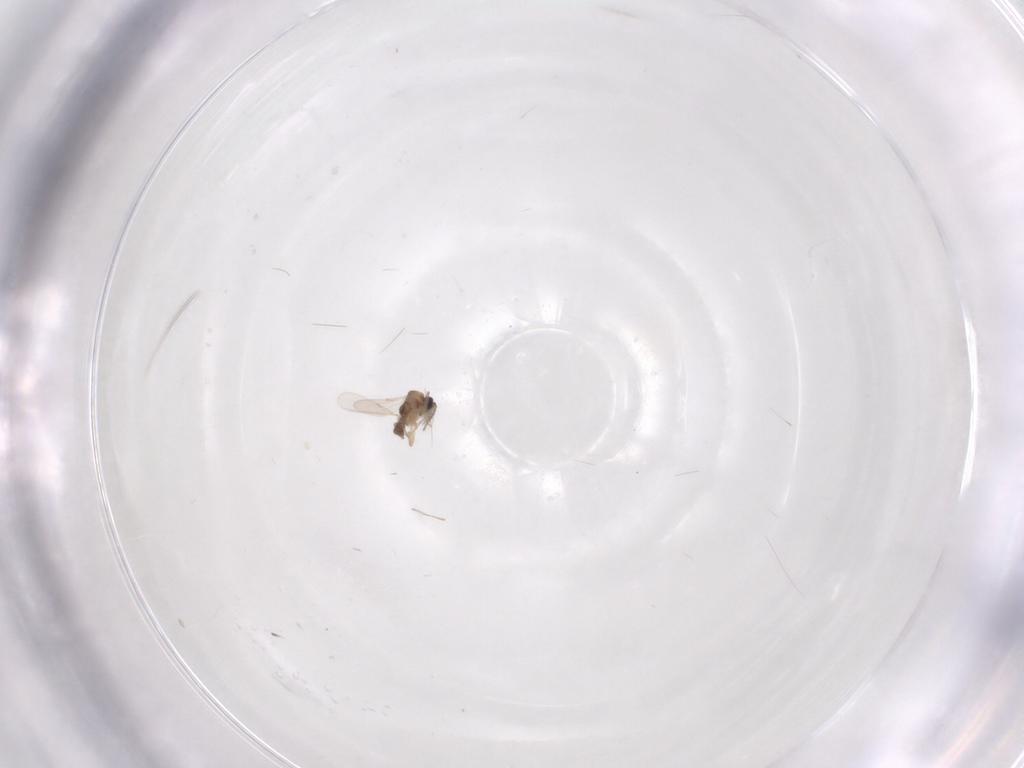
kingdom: Animalia
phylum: Arthropoda
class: Insecta
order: Diptera
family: Ceratopogonidae
